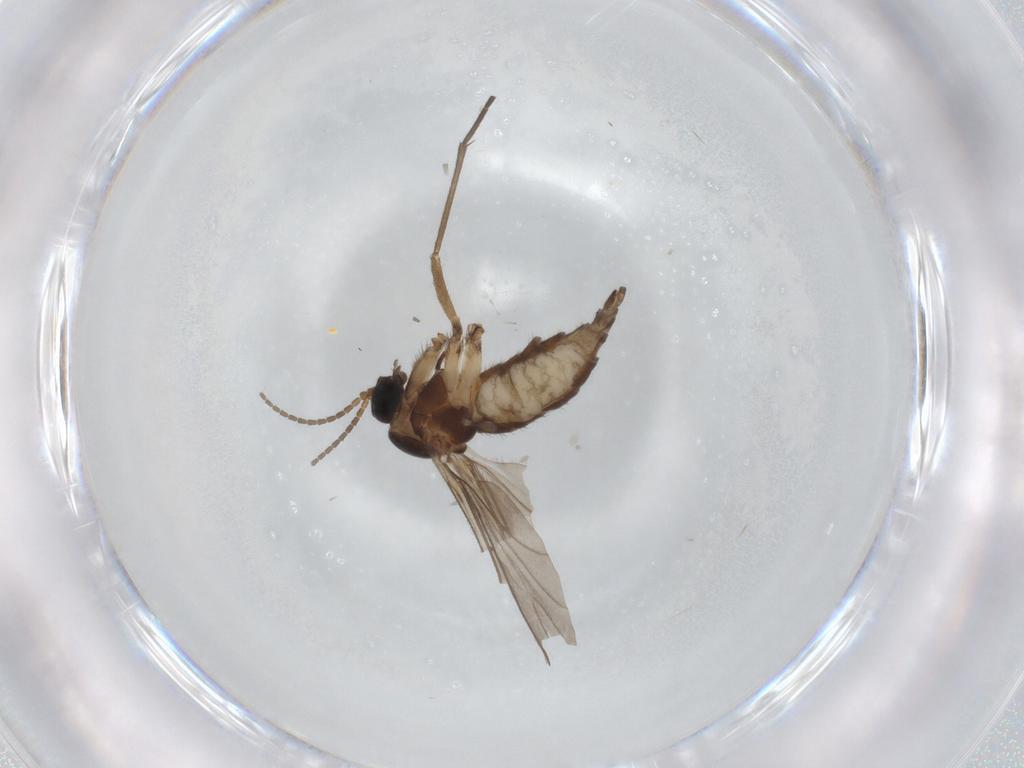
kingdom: Animalia
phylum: Arthropoda
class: Insecta
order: Diptera
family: Sciaridae
